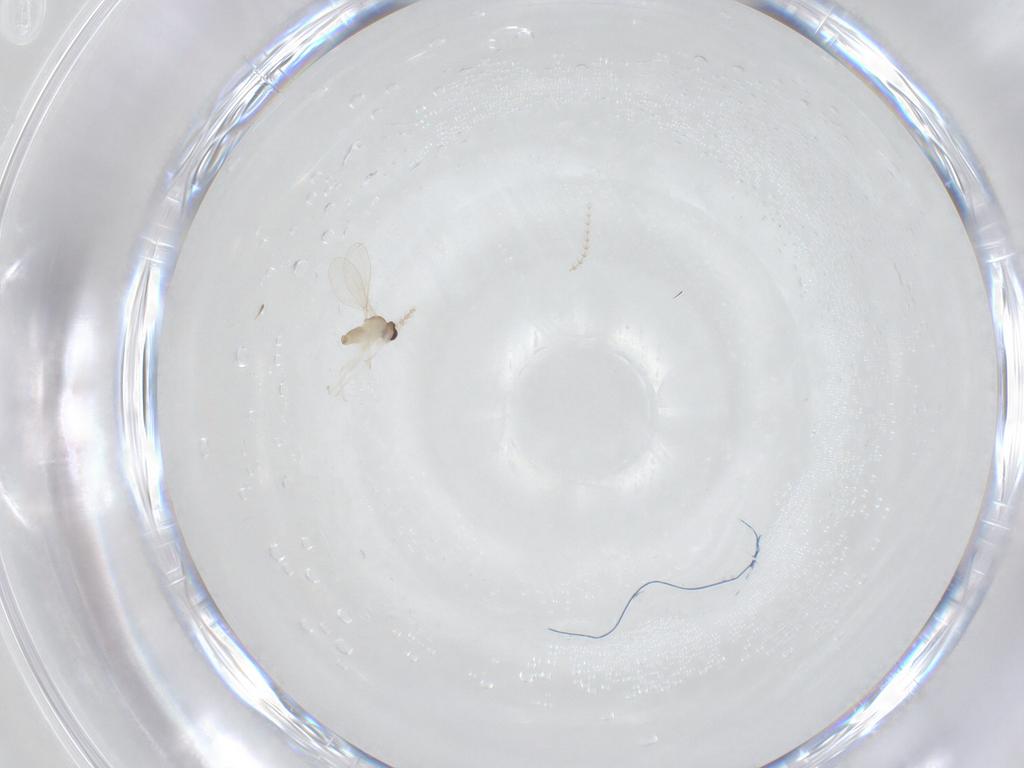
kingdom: Animalia
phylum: Arthropoda
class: Insecta
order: Diptera
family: Cecidomyiidae
